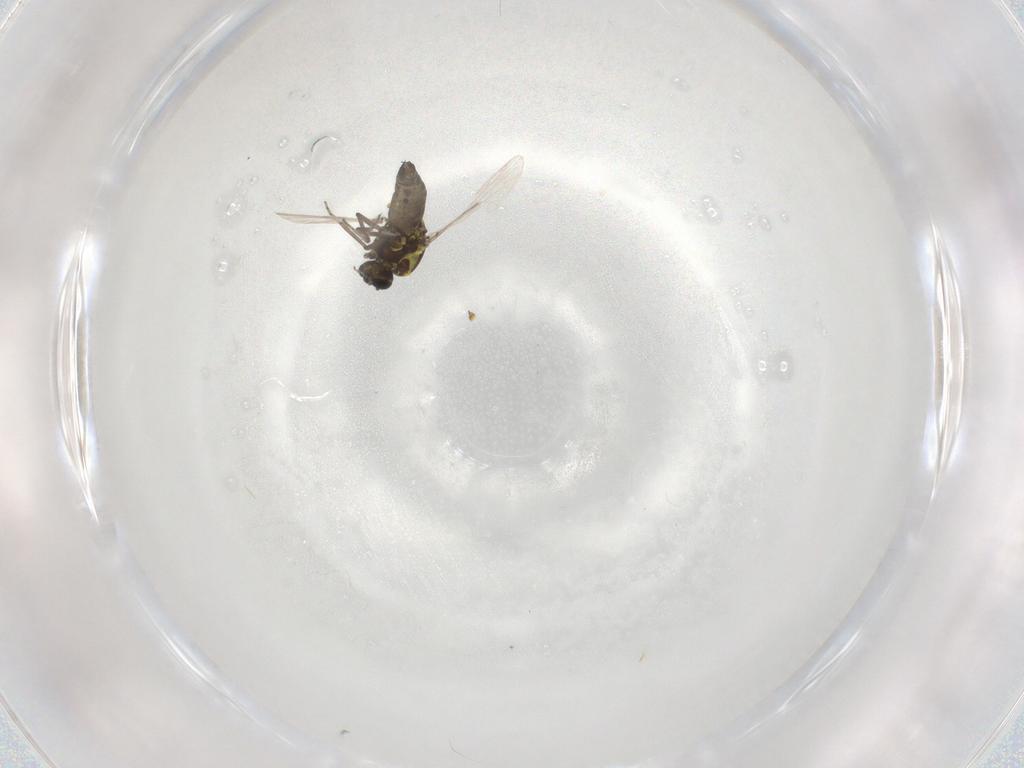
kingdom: Animalia
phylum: Arthropoda
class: Insecta
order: Diptera
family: Ceratopogonidae
